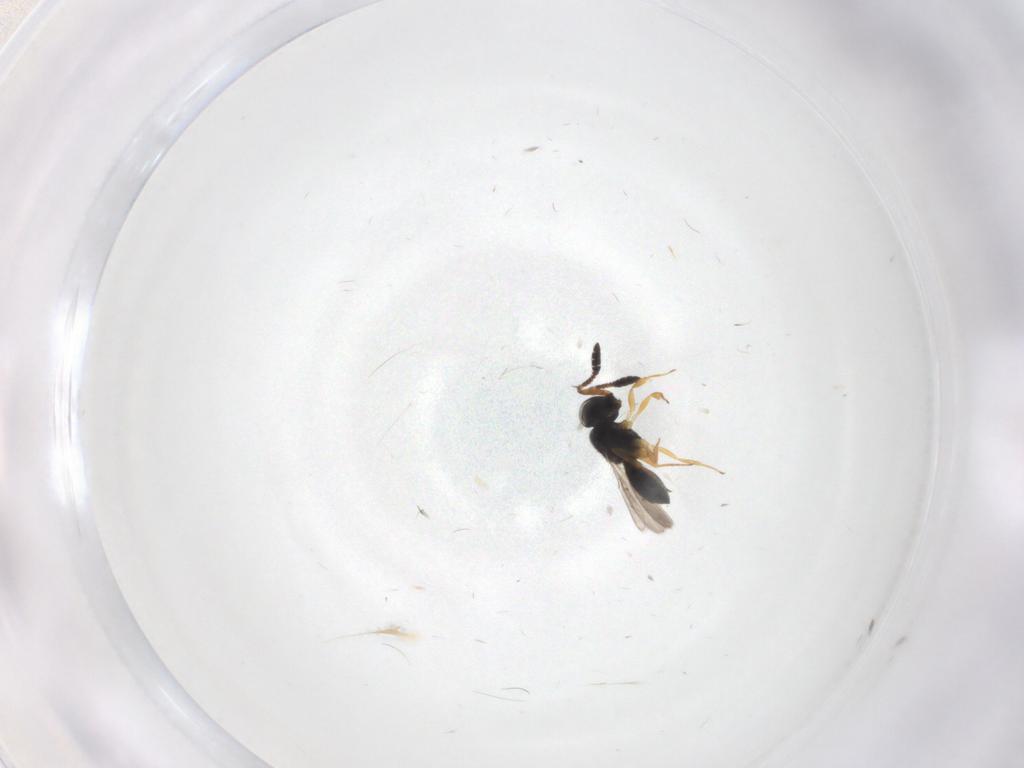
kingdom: Animalia
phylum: Arthropoda
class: Insecta
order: Hymenoptera
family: Scelionidae
